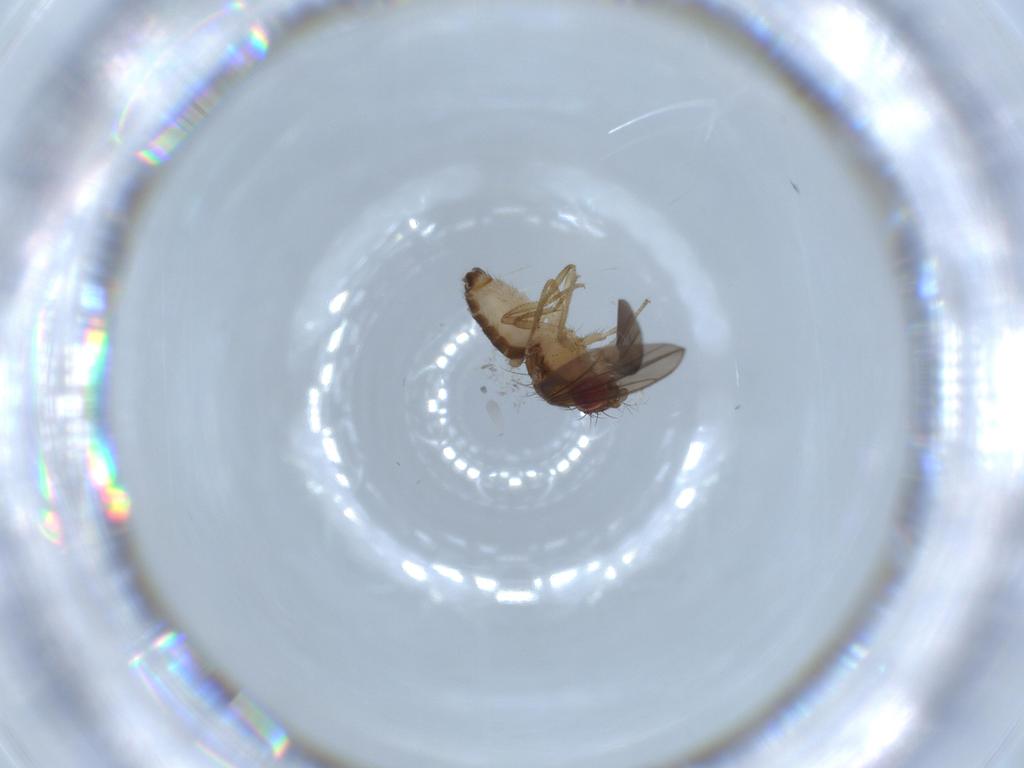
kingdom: Animalia
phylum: Arthropoda
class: Insecta
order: Diptera
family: Drosophilidae
